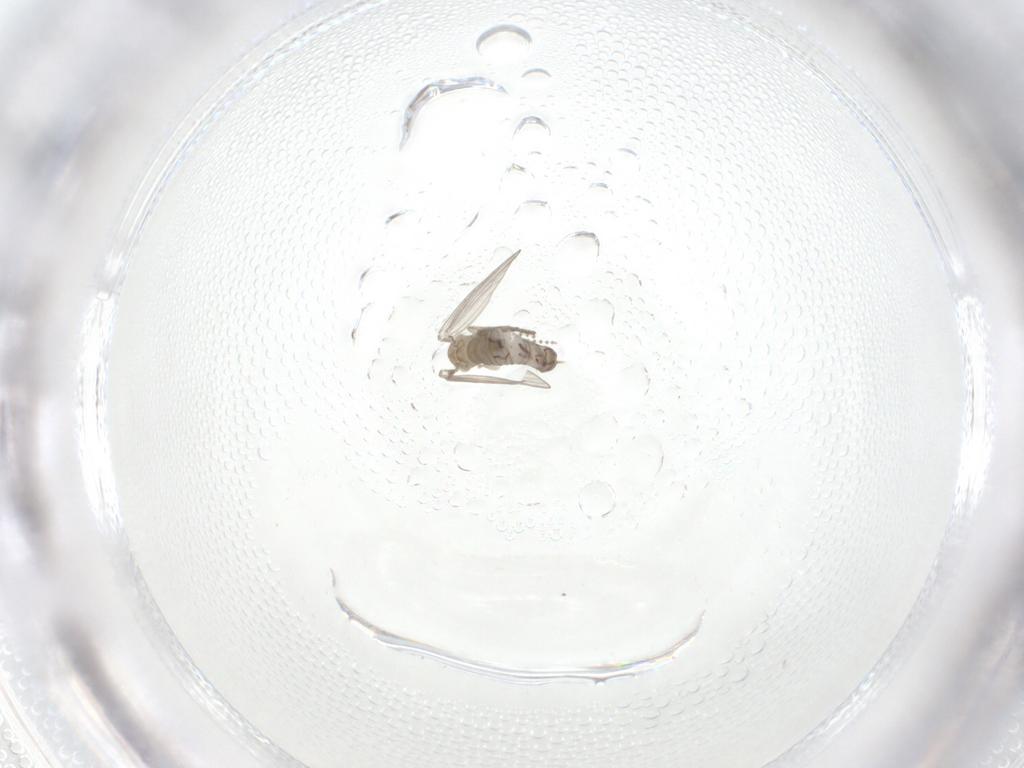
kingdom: Animalia
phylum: Arthropoda
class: Insecta
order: Diptera
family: Psychodidae
